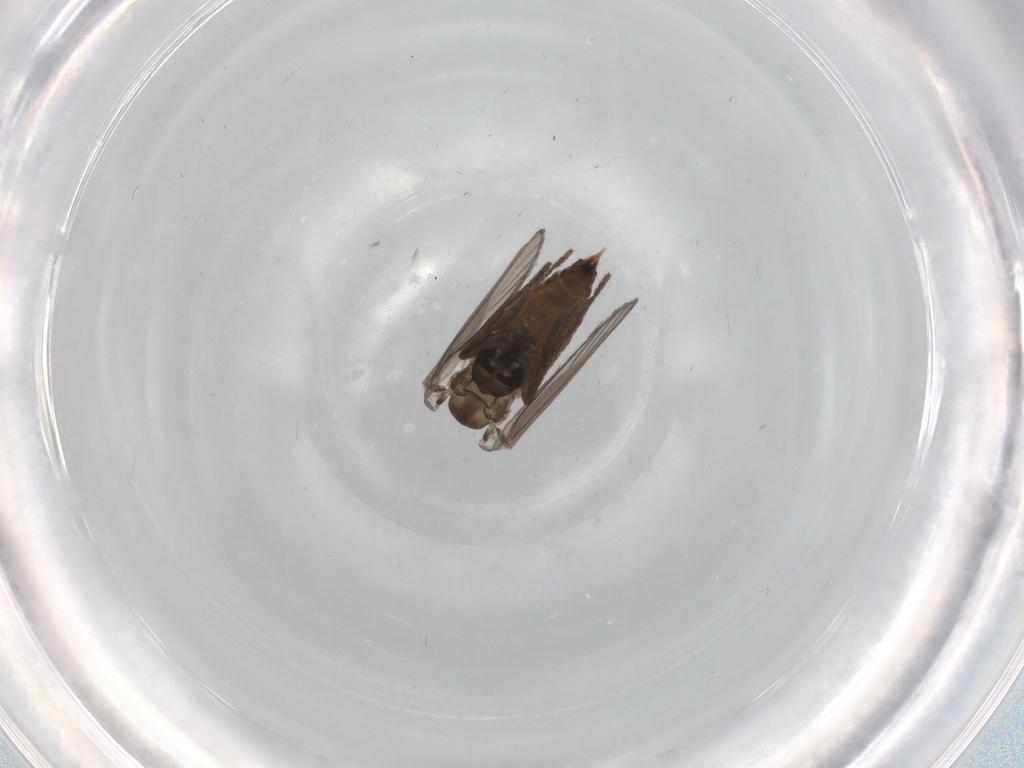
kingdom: Animalia
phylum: Arthropoda
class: Insecta
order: Diptera
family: Psychodidae
